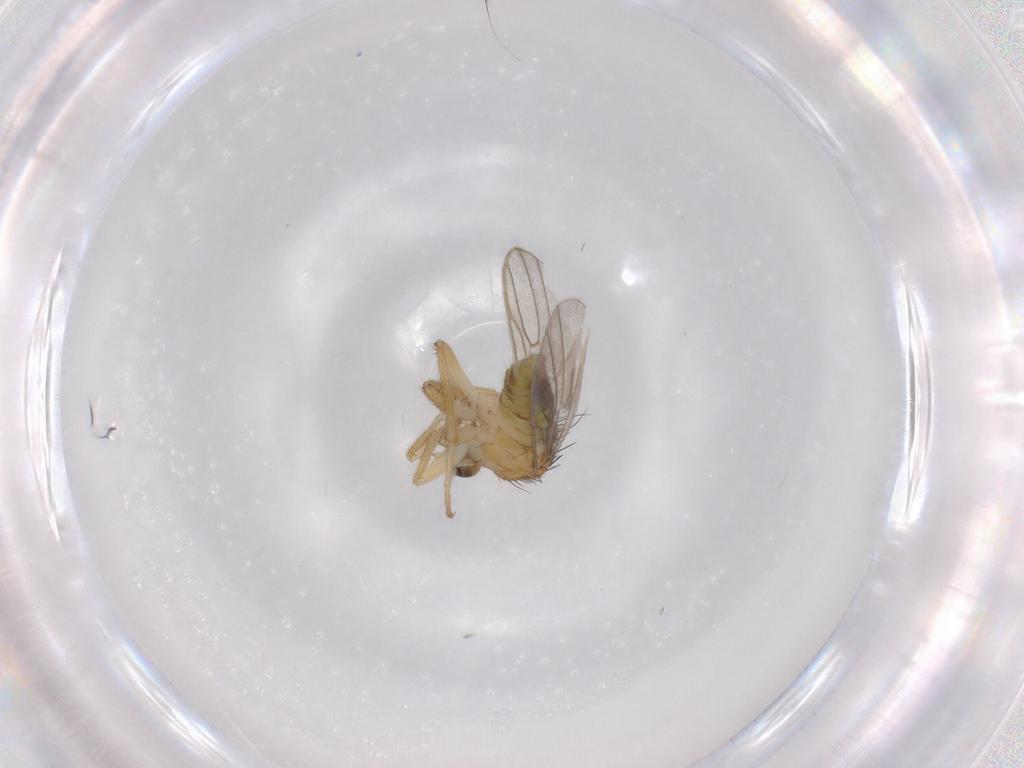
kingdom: Animalia
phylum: Arthropoda
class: Insecta
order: Diptera
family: Hybotidae
